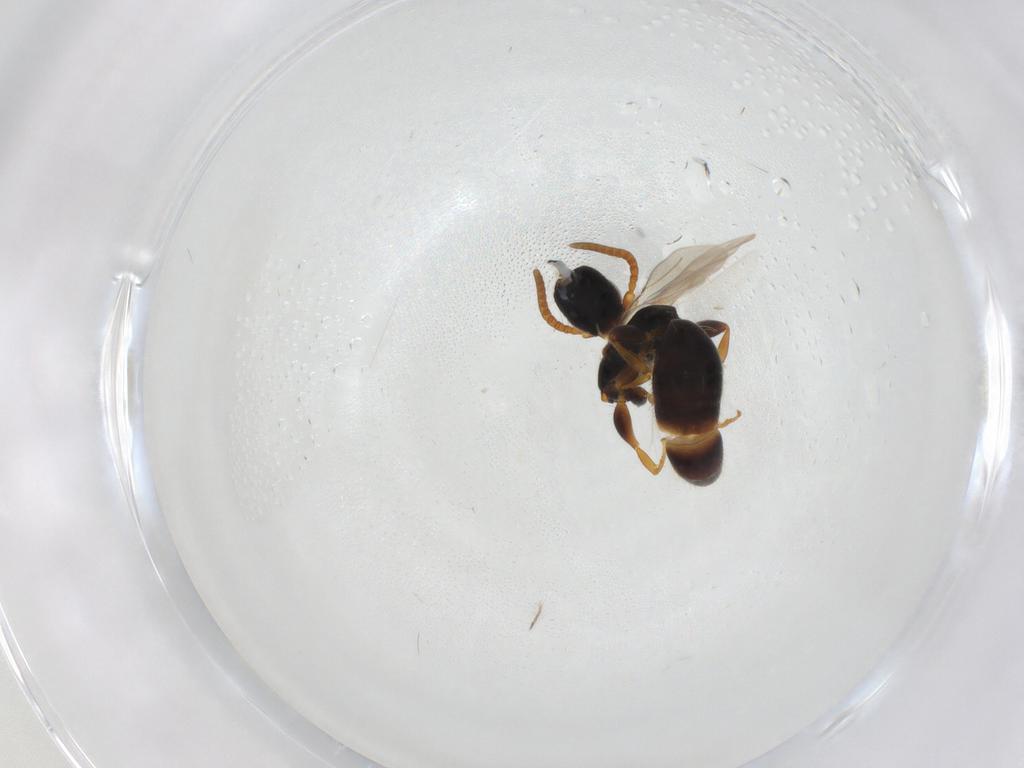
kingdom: Animalia
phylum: Arthropoda
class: Insecta
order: Hymenoptera
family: Bethylidae
